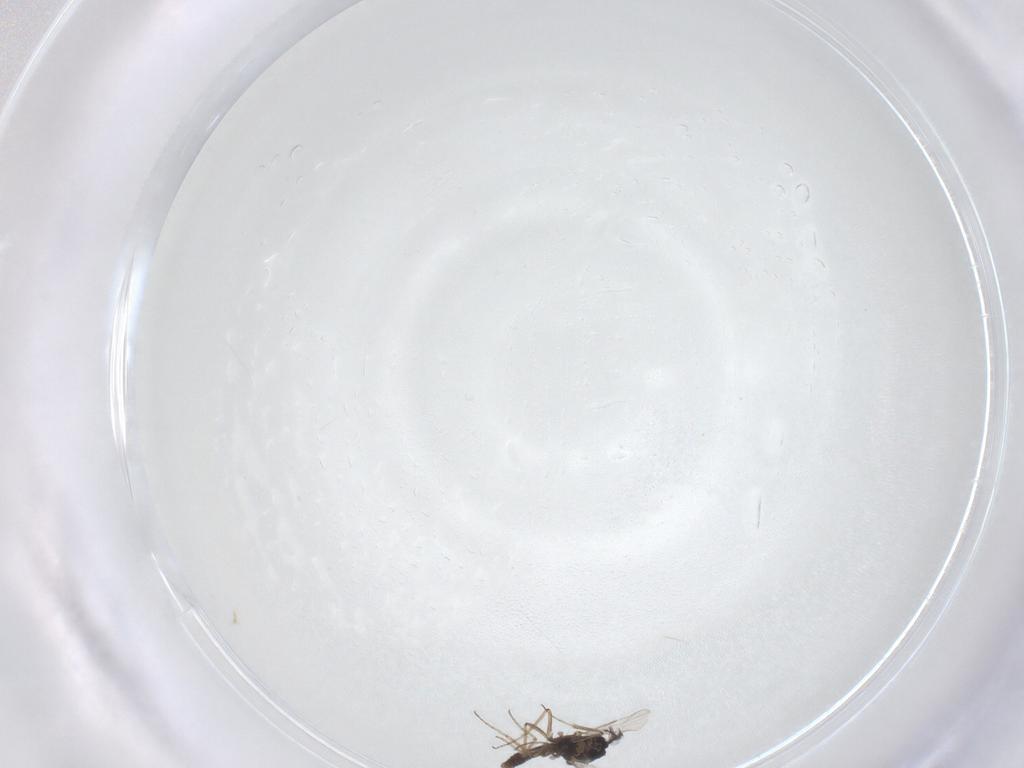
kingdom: Animalia
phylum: Arthropoda
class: Insecta
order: Diptera
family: Ceratopogonidae
